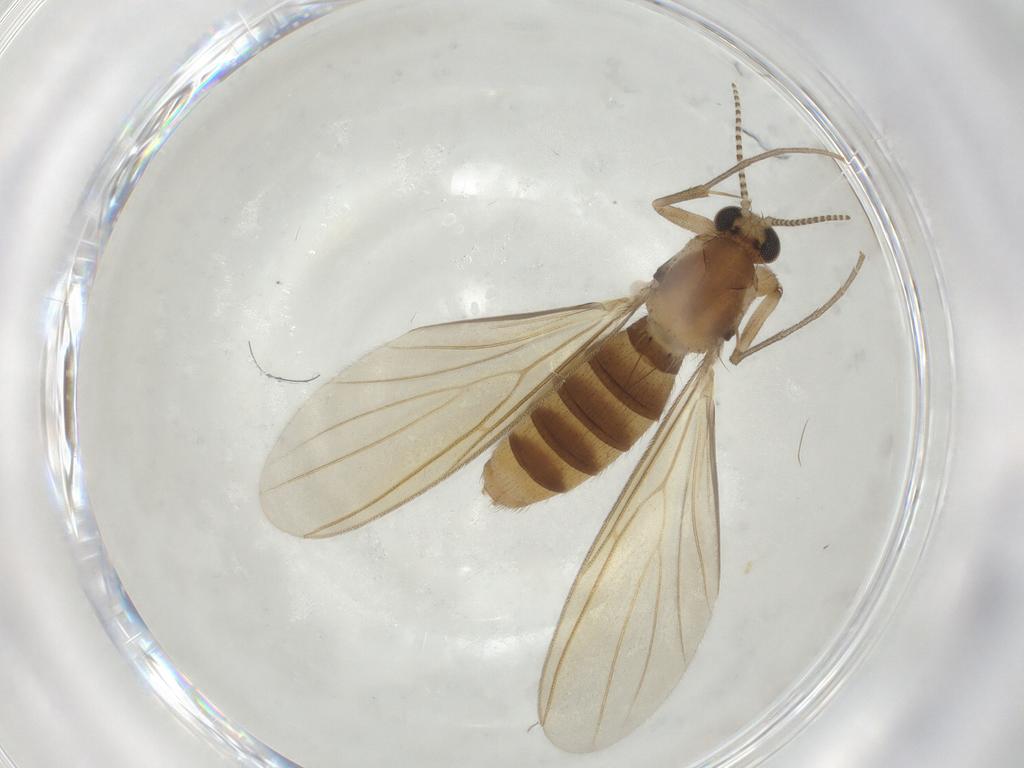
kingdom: Animalia
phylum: Arthropoda
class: Insecta
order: Diptera
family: Mycetophilidae
